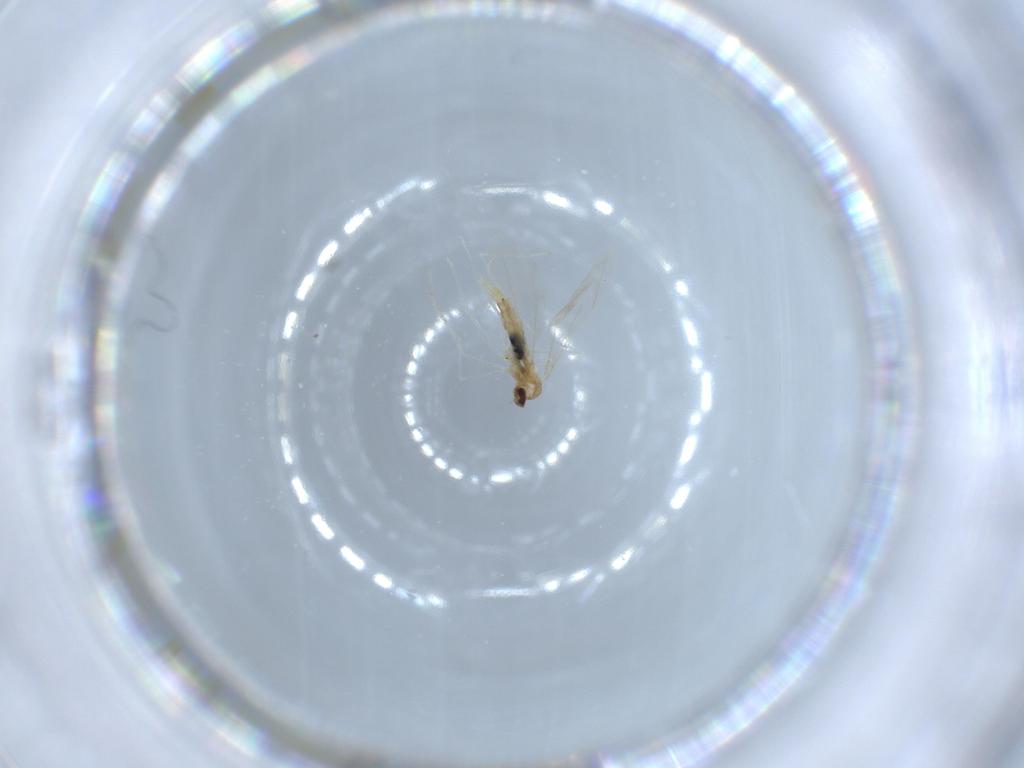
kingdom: Animalia
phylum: Arthropoda
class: Insecta
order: Diptera
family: Cecidomyiidae
